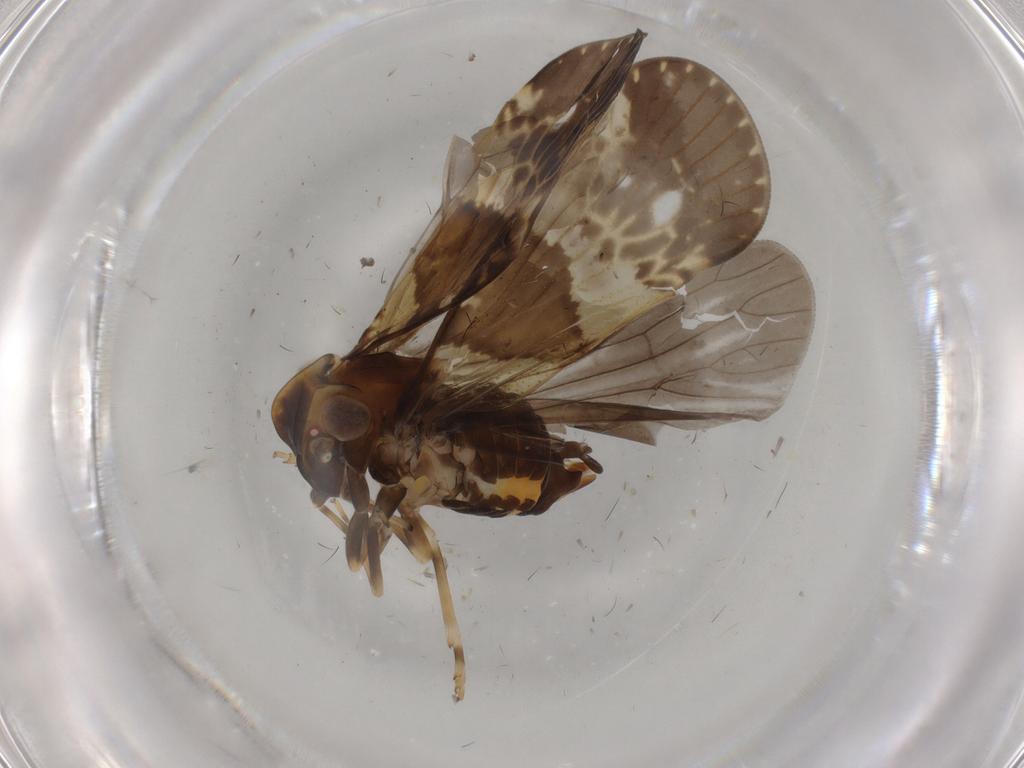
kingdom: Animalia
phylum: Arthropoda
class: Insecta
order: Hemiptera
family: Cixiidae
